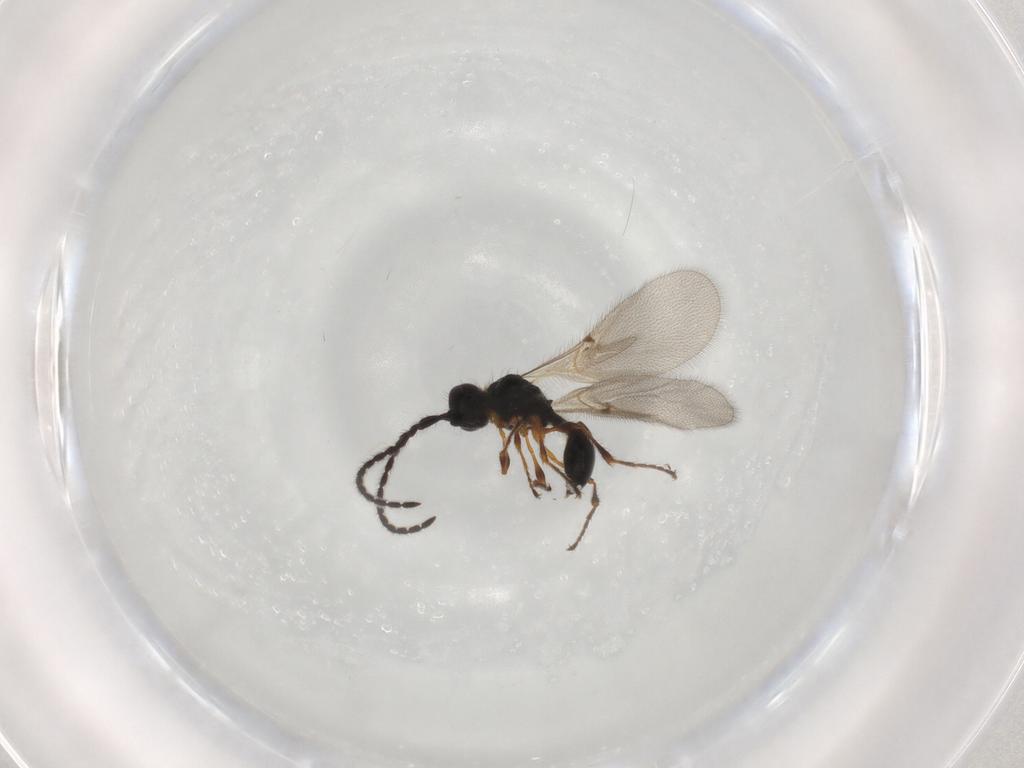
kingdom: Animalia
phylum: Arthropoda
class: Insecta
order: Hymenoptera
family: Diapriidae
